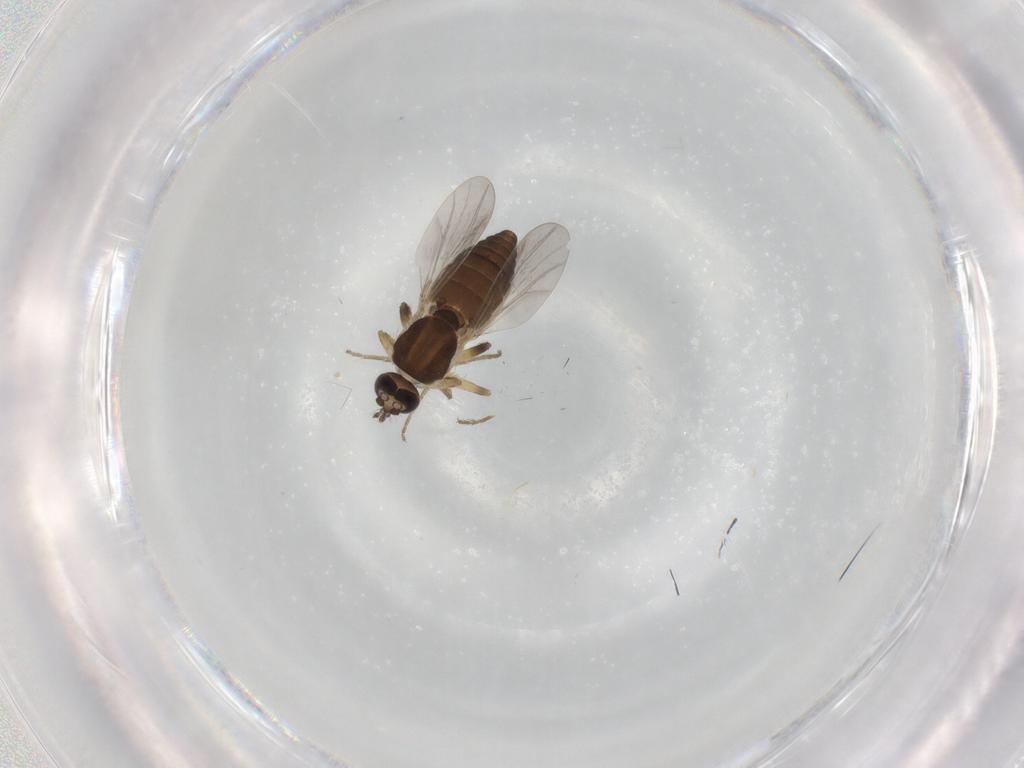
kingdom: Animalia
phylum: Arthropoda
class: Insecta
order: Diptera
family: Ceratopogonidae
